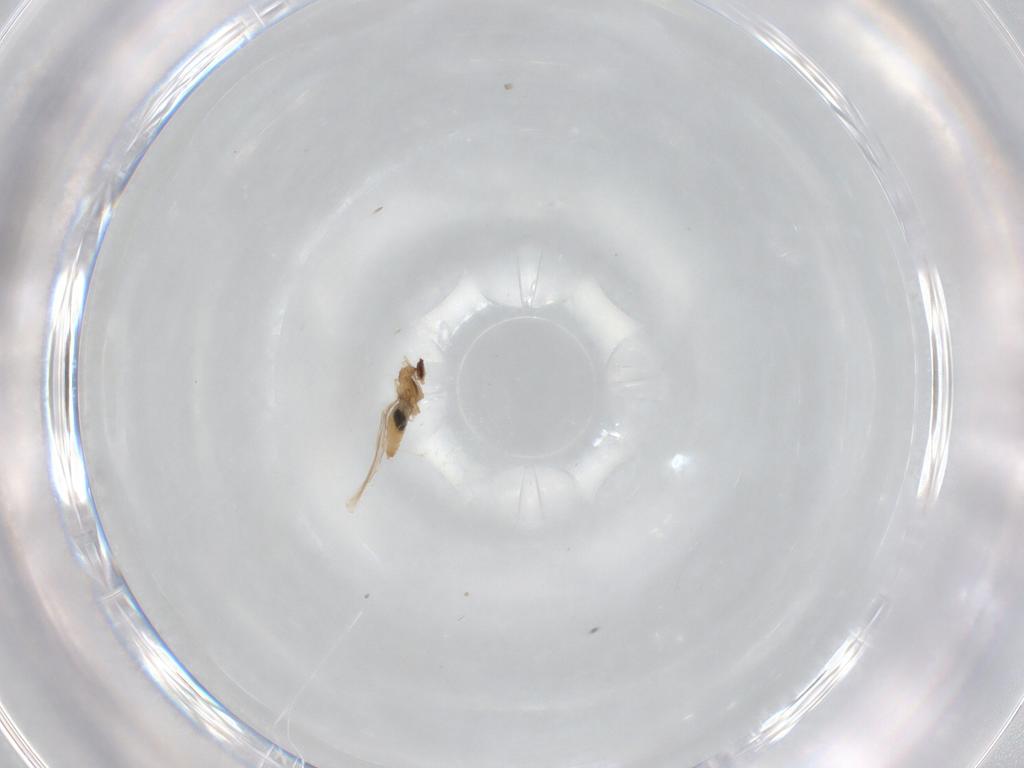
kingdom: Animalia
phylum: Arthropoda
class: Insecta
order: Diptera
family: Cecidomyiidae
